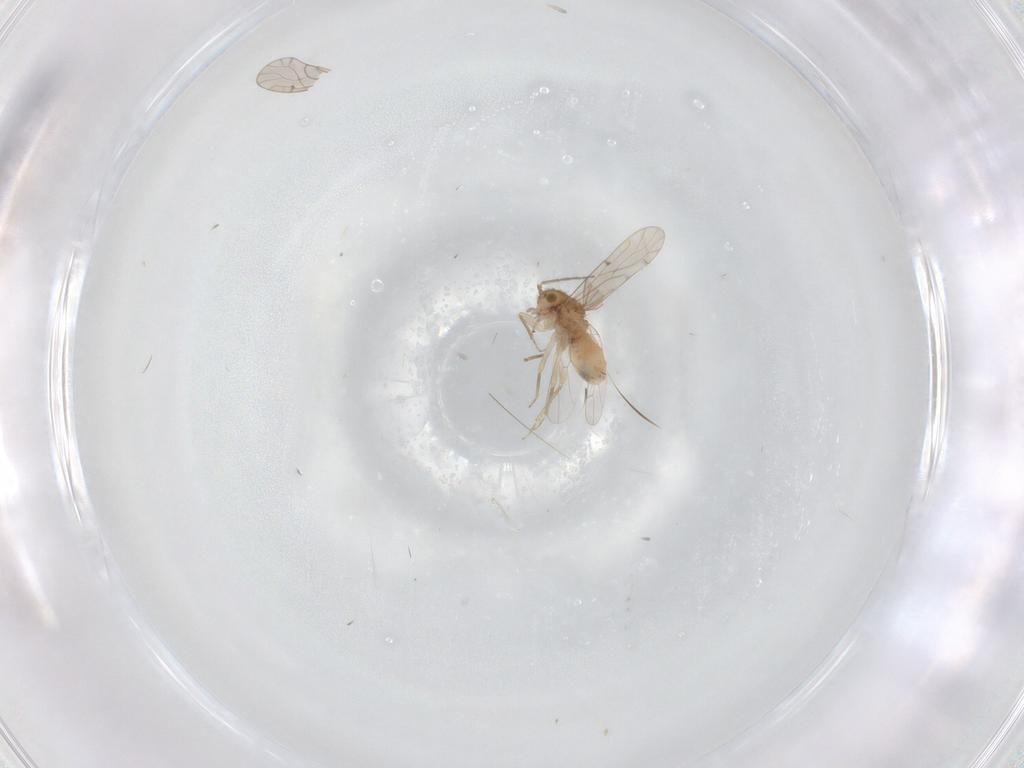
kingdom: Animalia
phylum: Arthropoda
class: Insecta
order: Psocodea
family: Ectopsocidae
